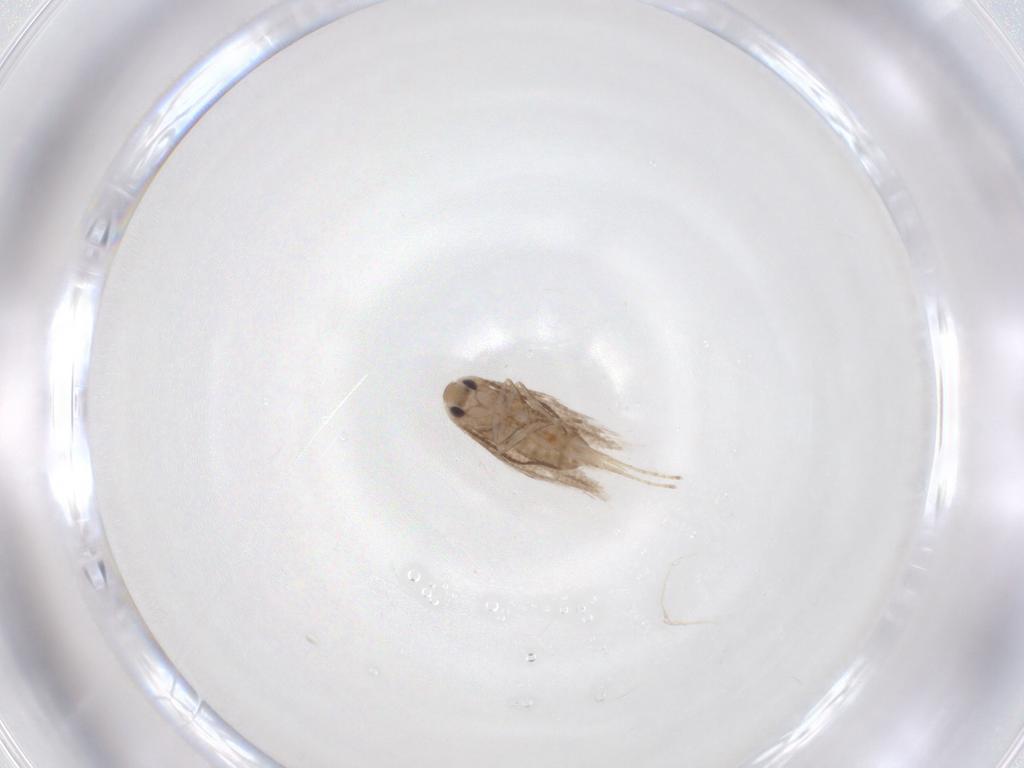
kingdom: Animalia
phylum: Arthropoda
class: Insecta
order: Lepidoptera
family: Depressariidae
